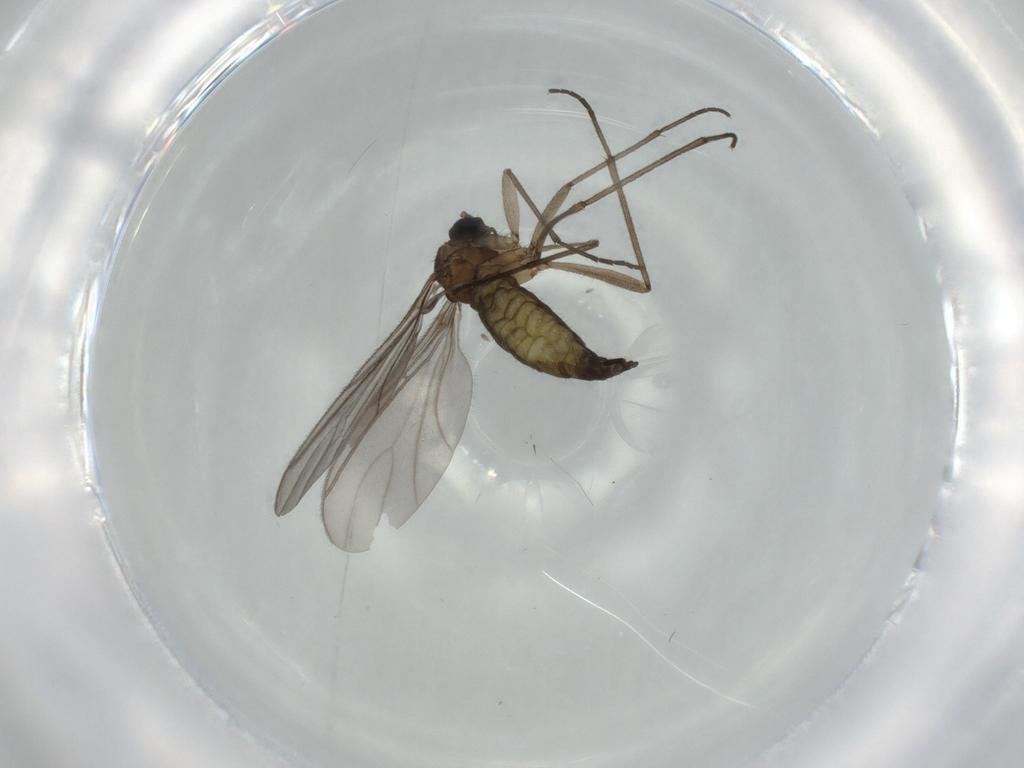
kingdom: Animalia
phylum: Arthropoda
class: Insecta
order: Diptera
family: Sciaridae
